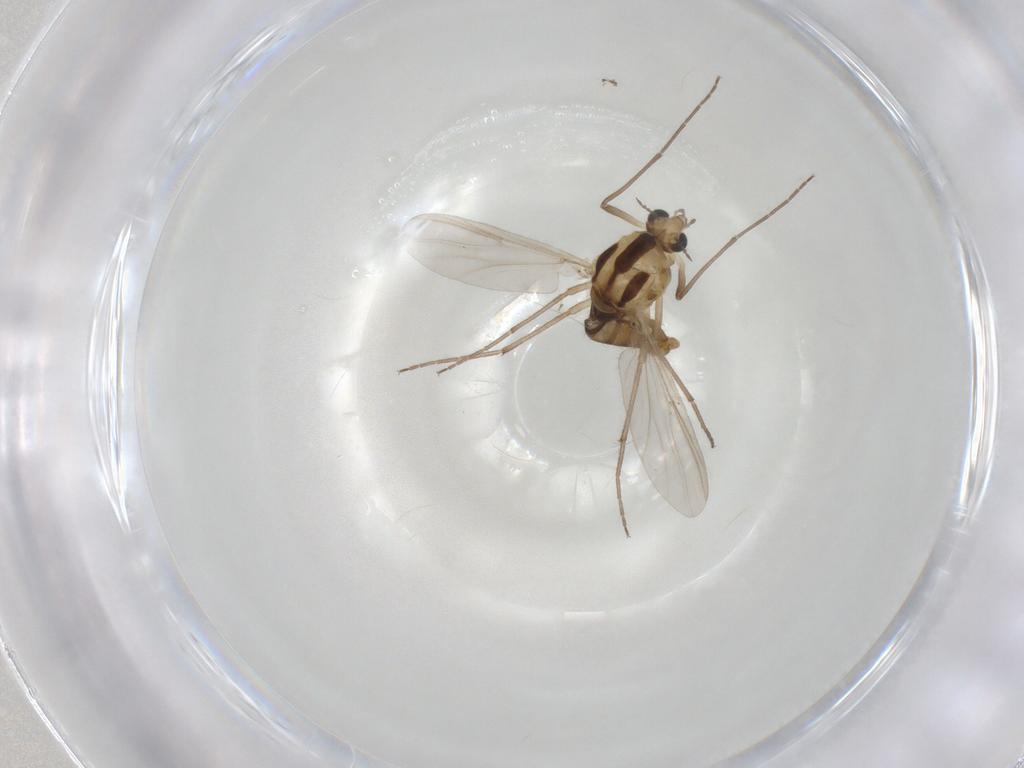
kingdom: Animalia
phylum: Arthropoda
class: Insecta
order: Diptera
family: Chironomidae
